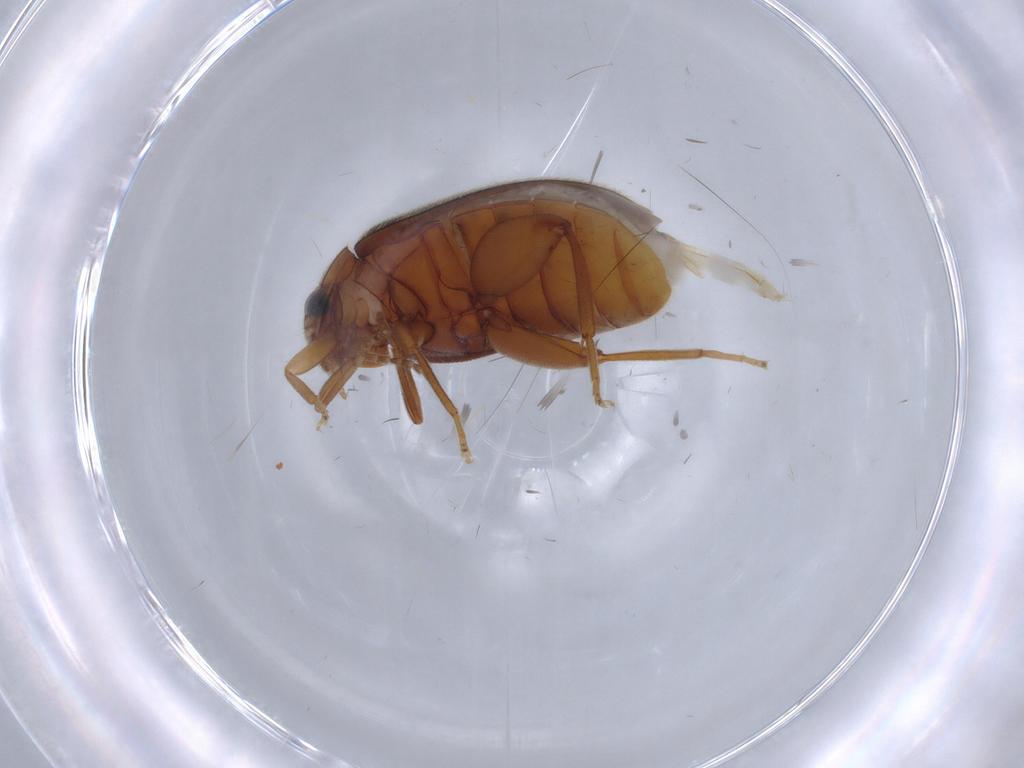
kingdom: Animalia
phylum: Arthropoda
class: Insecta
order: Coleoptera
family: Scirtidae
